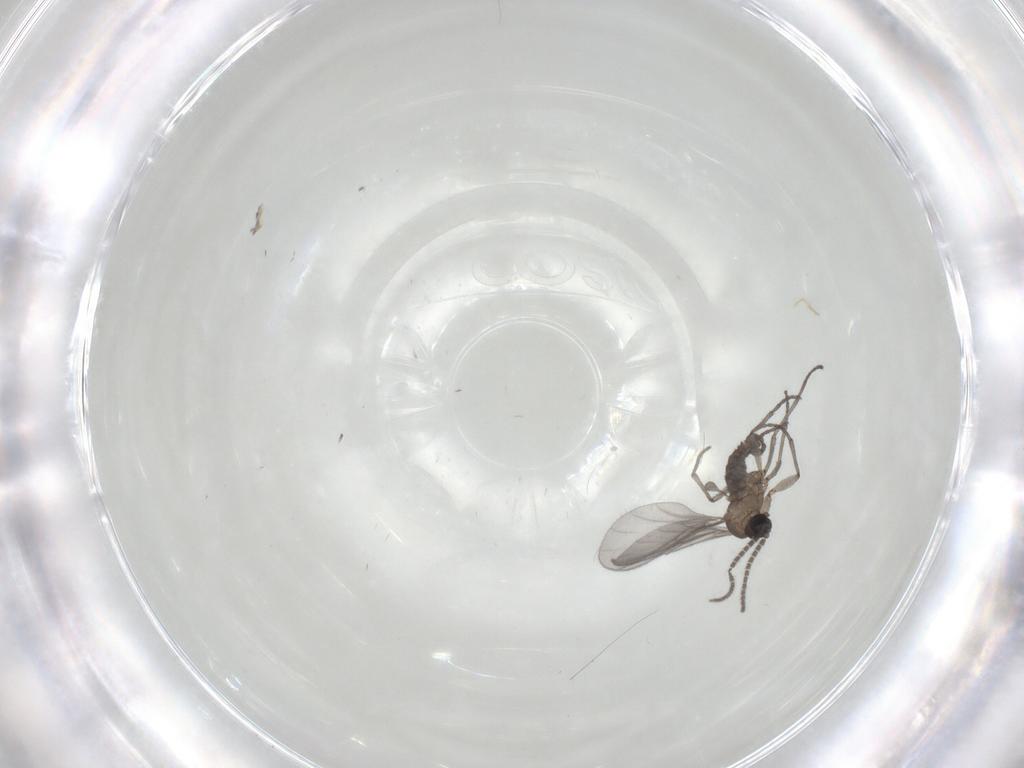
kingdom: Animalia
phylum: Arthropoda
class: Insecta
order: Diptera
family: Sciaridae
